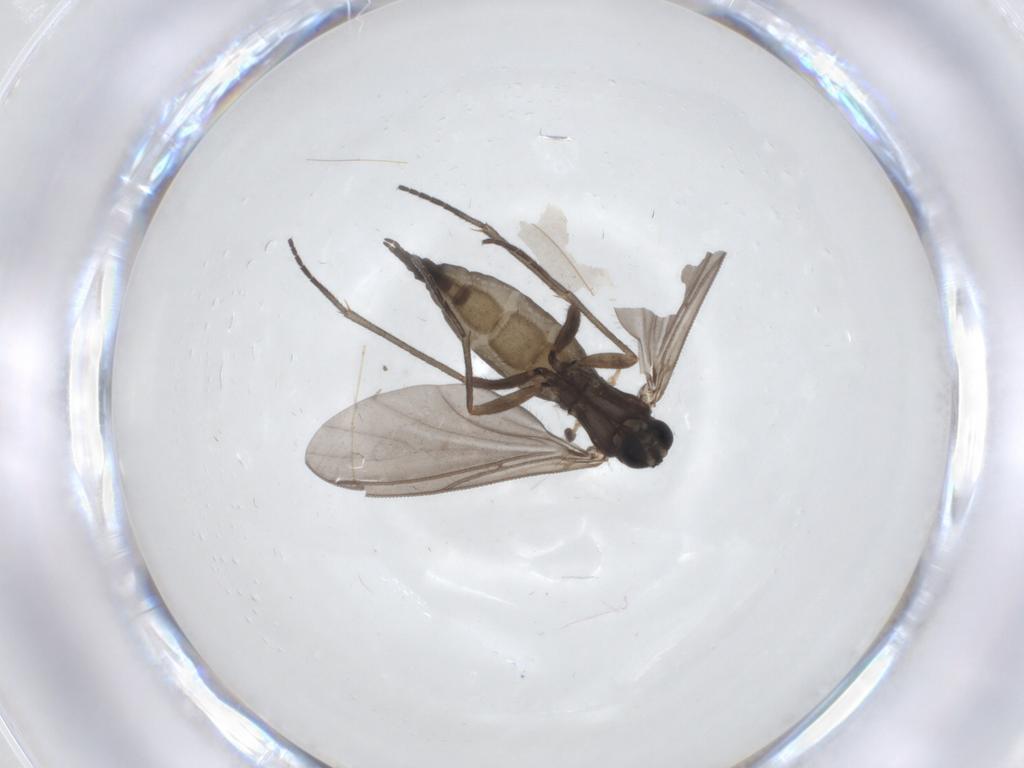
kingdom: Animalia
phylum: Arthropoda
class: Insecta
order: Diptera
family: Sciaridae
